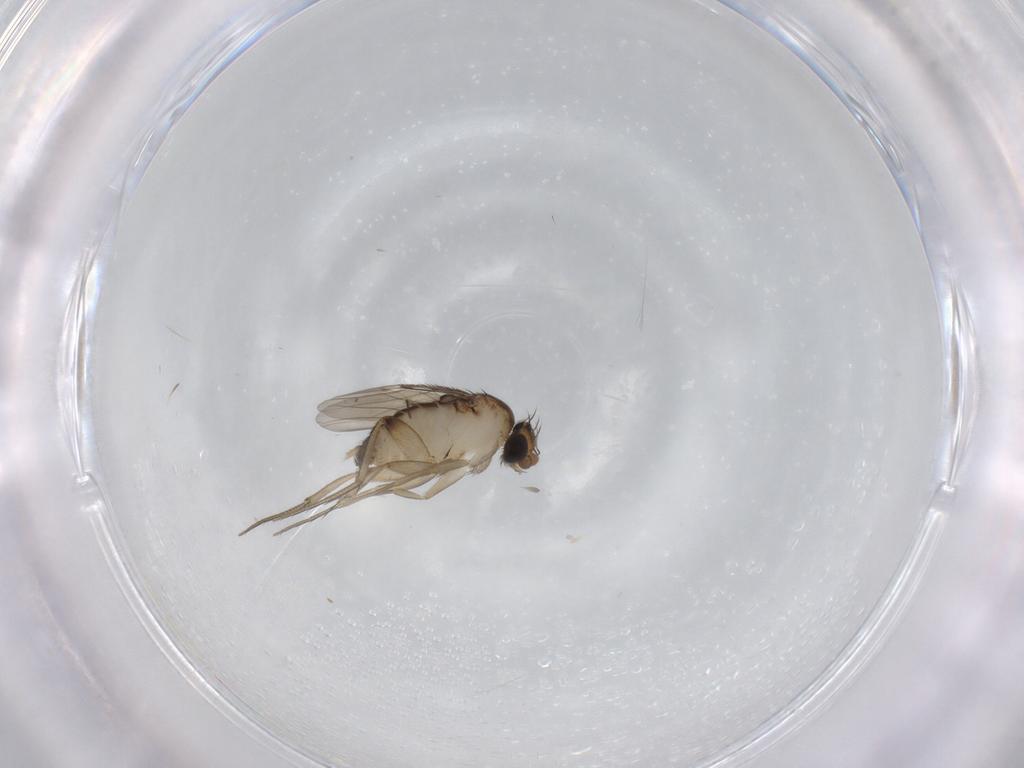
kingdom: Animalia
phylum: Arthropoda
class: Insecta
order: Diptera
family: Phoridae
